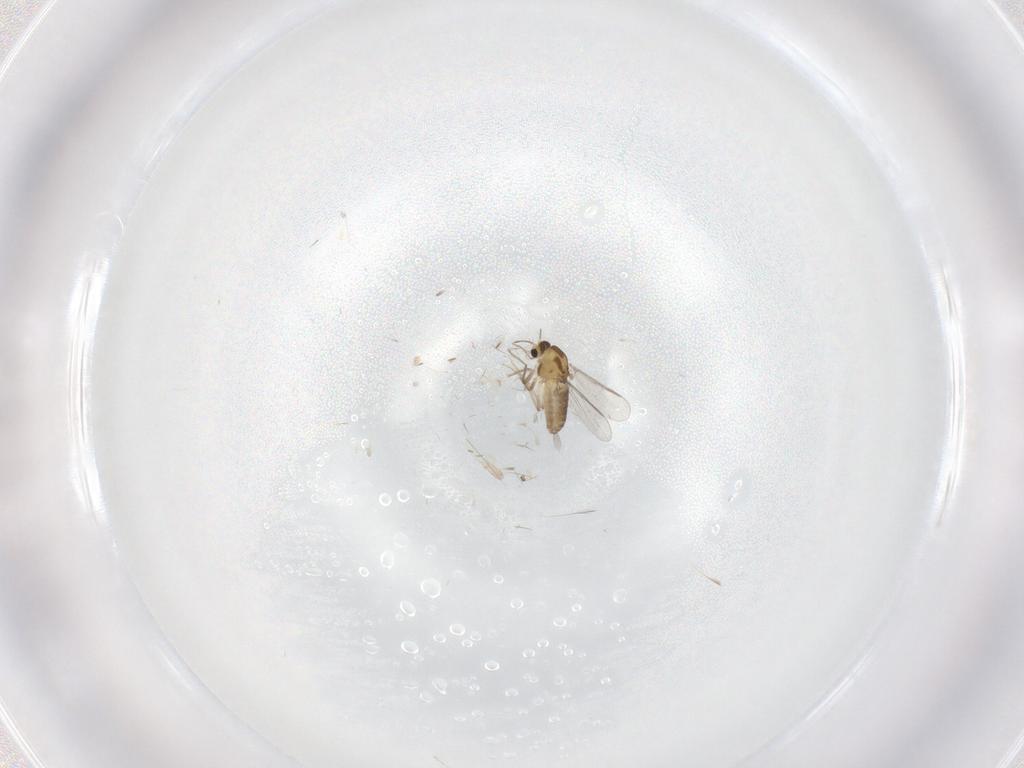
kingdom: Animalia
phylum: Arthropoda
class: Insecta
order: Diptera
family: Chironomidae
